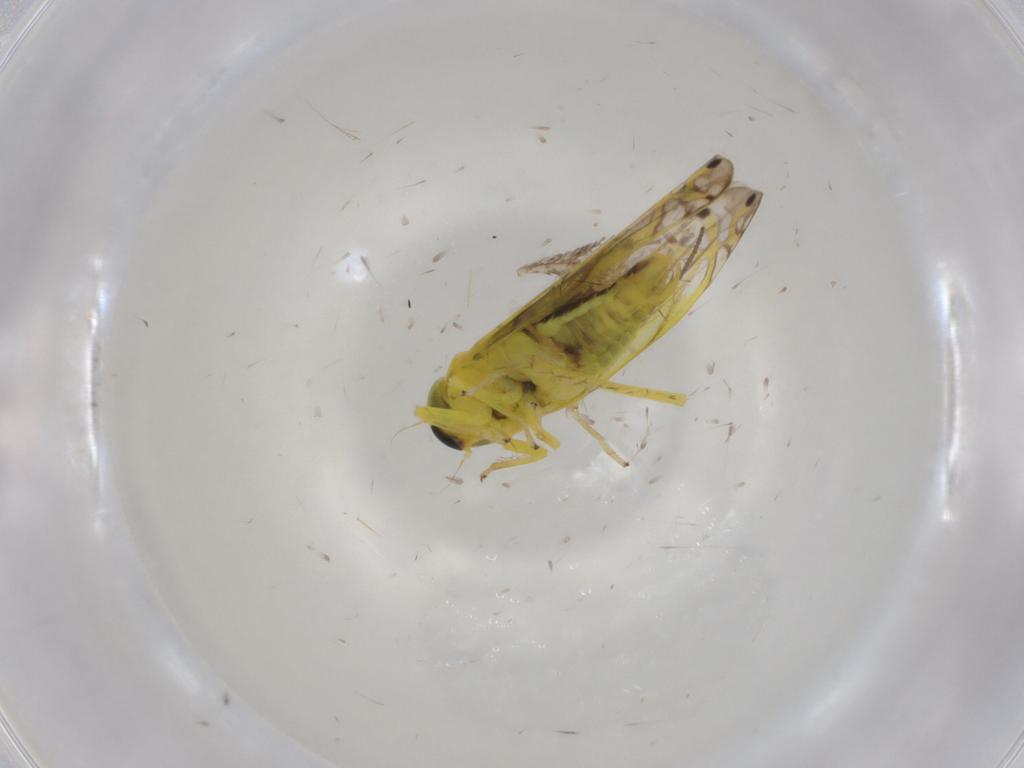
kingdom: Animalia
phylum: Arthropoda
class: Insecta
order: Hemiptera
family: Cicadellidae
